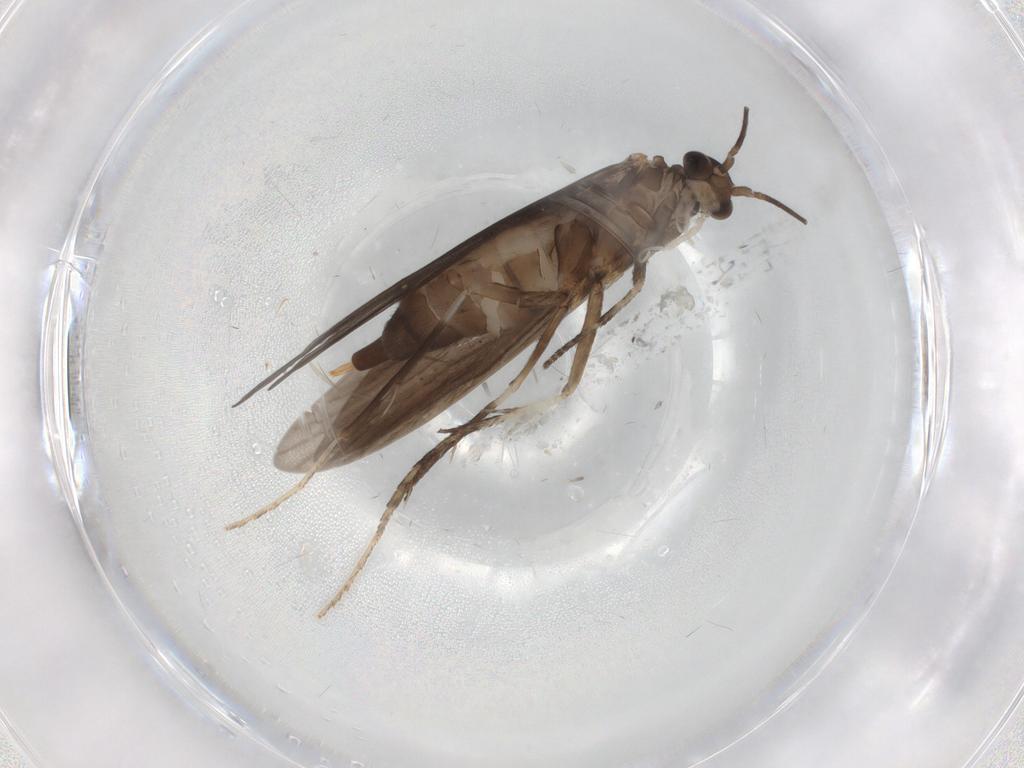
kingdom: Animalia
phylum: Arthropoda
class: Insecta
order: Trichoptera
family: Xiphocentronidae
